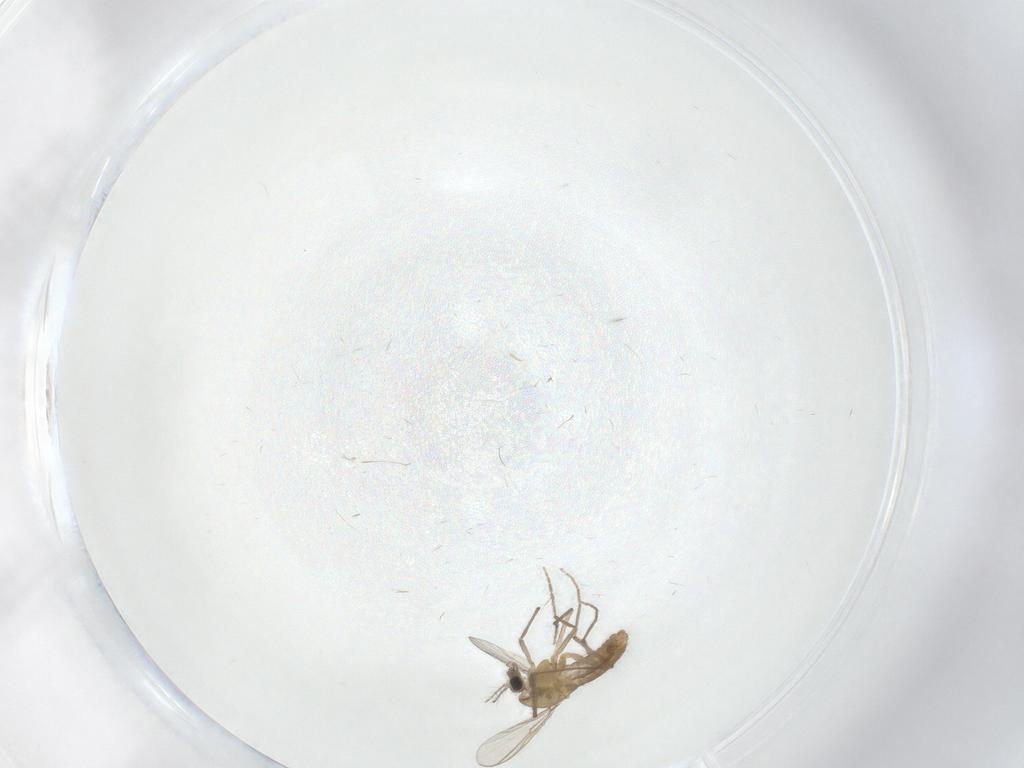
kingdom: Animalia
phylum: Arthropoda
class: Insecta
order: Diptera
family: Chironomidae
